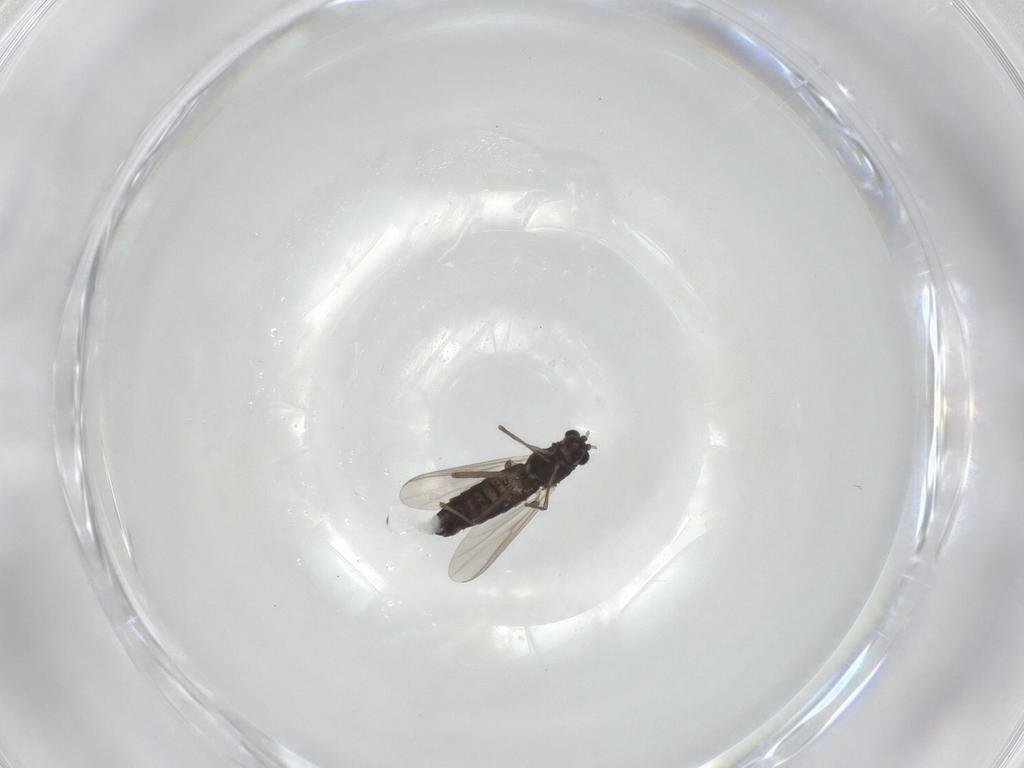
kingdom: Animalia
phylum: Arthropoda
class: Insecta
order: Diptera
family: Chironomidae
